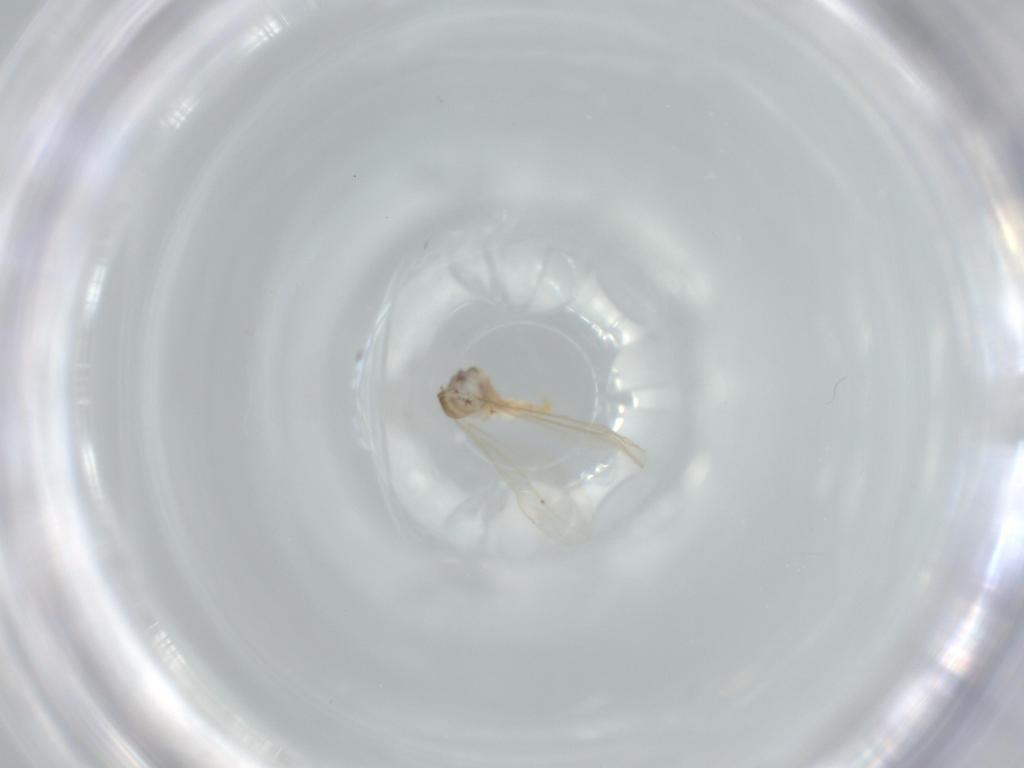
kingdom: Animalia
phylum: Arthropoda
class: Insecta
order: Diptera
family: Cecidomyiidae
